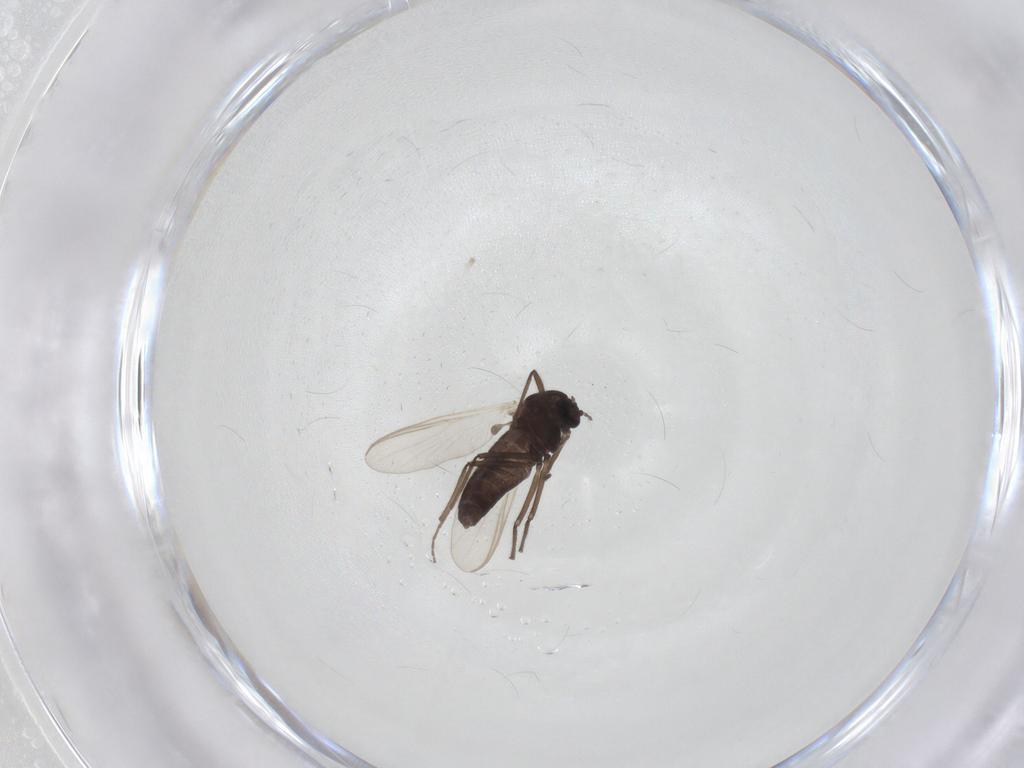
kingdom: Animalia
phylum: Arthropoda
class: Insecta
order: Diptera
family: Chironomidae
